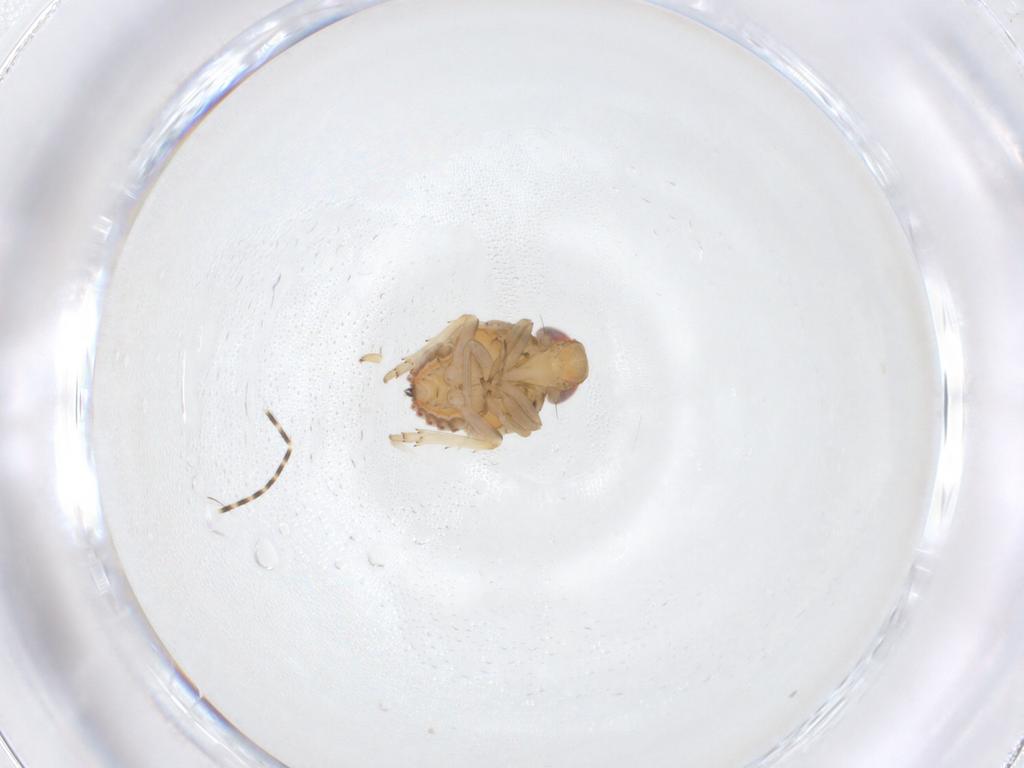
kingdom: Animalia
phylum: Arthropoda
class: Insecta
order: Hemiptera
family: Issidae
